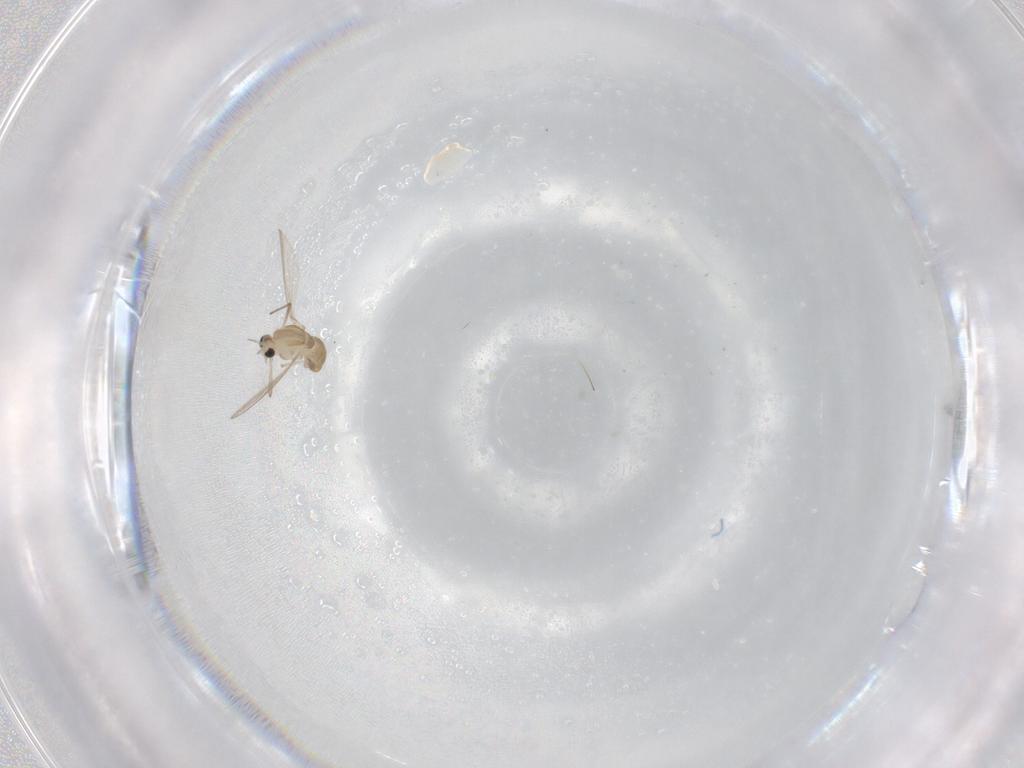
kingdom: Animalia
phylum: Arthropoda
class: Insecta
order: Diptera
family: Chironomidae
